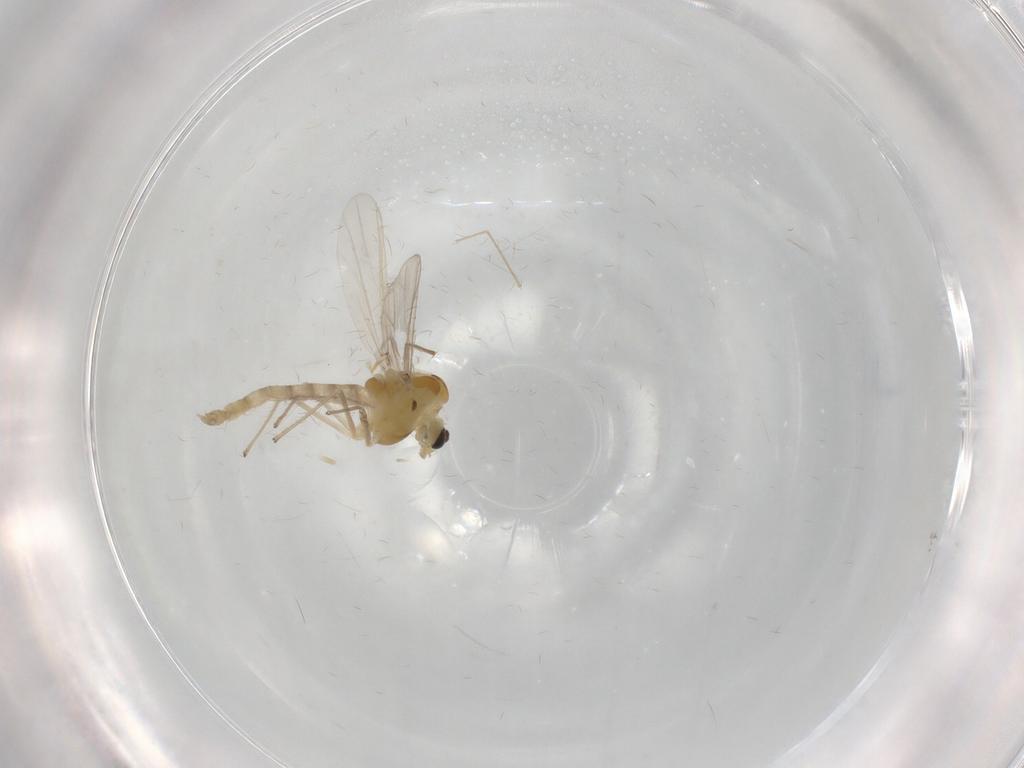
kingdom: Animalia
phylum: Arthropoda
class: Insecta
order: Diptera
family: Chironomidae
